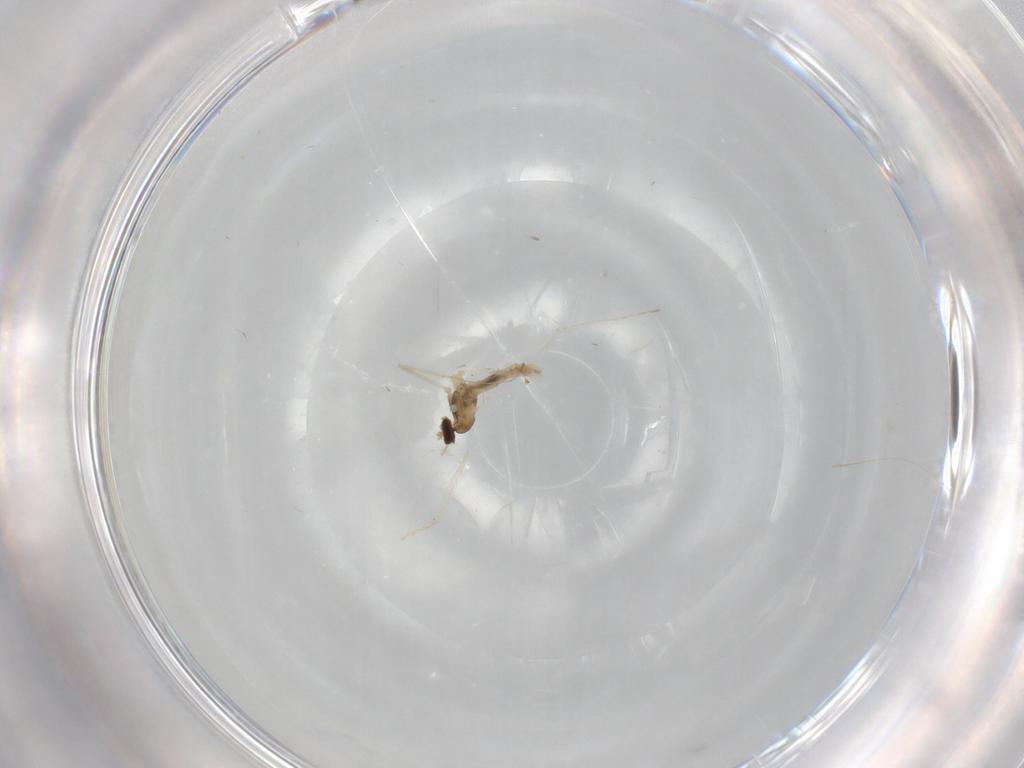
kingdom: Animalia
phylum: Arthropoda
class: Insecta
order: Diptera
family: Cecidomyiidae
